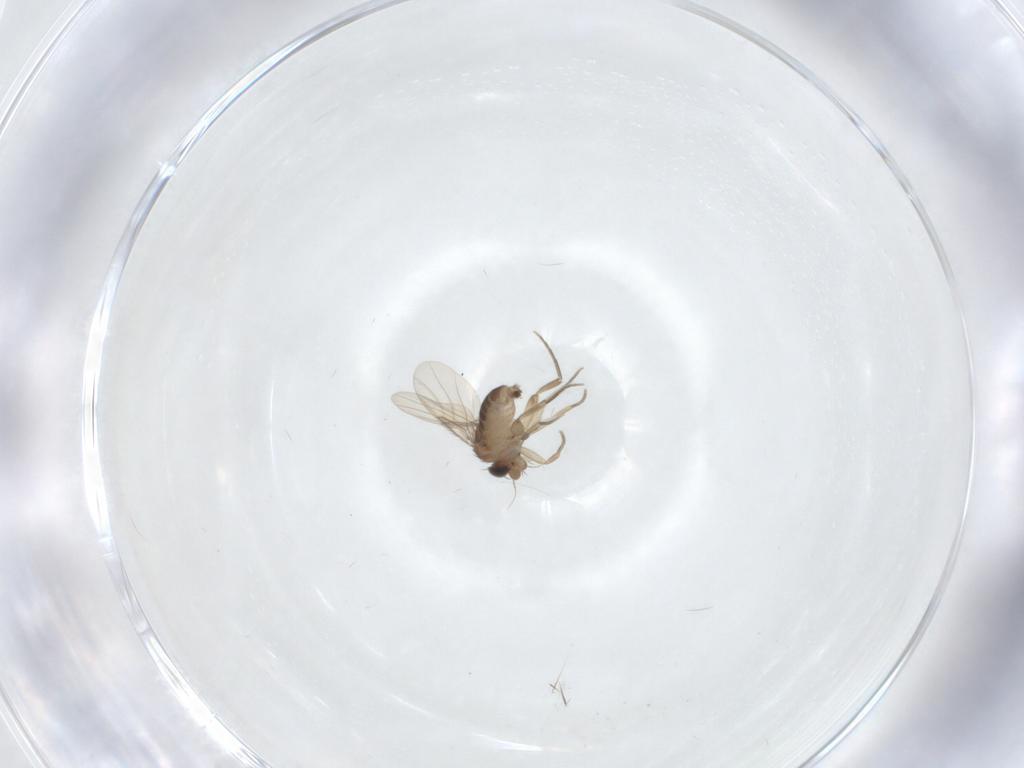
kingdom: Animalia
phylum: Arthropoda
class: Insecta
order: Diptera
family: Phoridae
